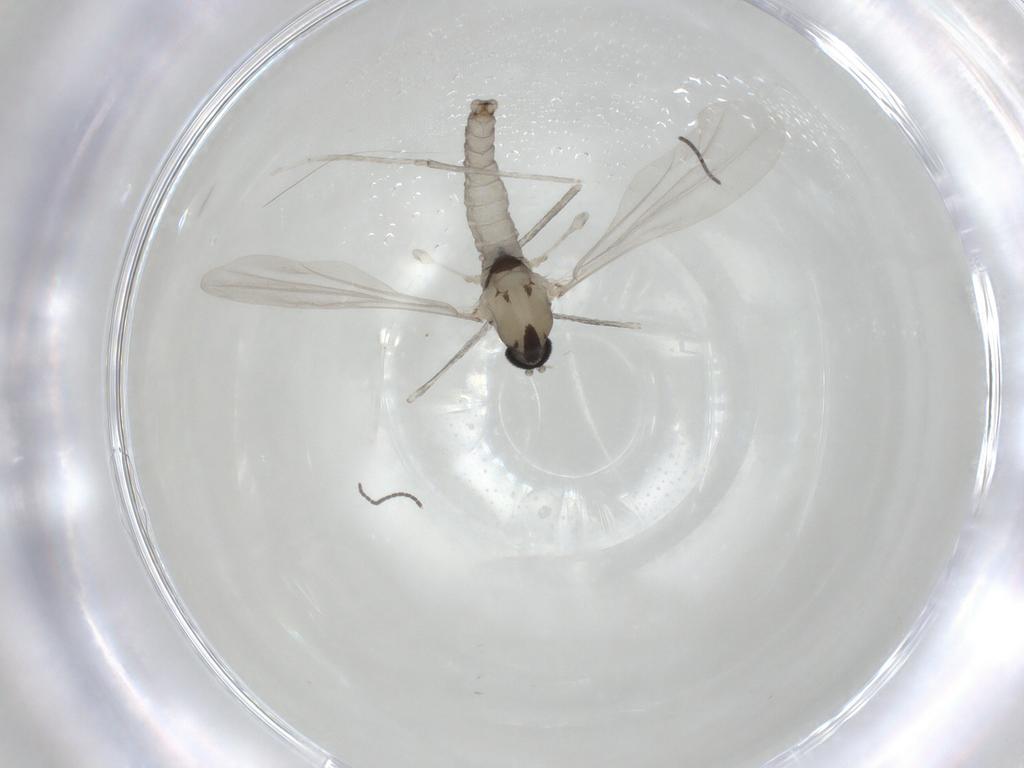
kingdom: Animalia
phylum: Arthropoda
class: Insecta
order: Diptera
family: Cecidomyiidae
